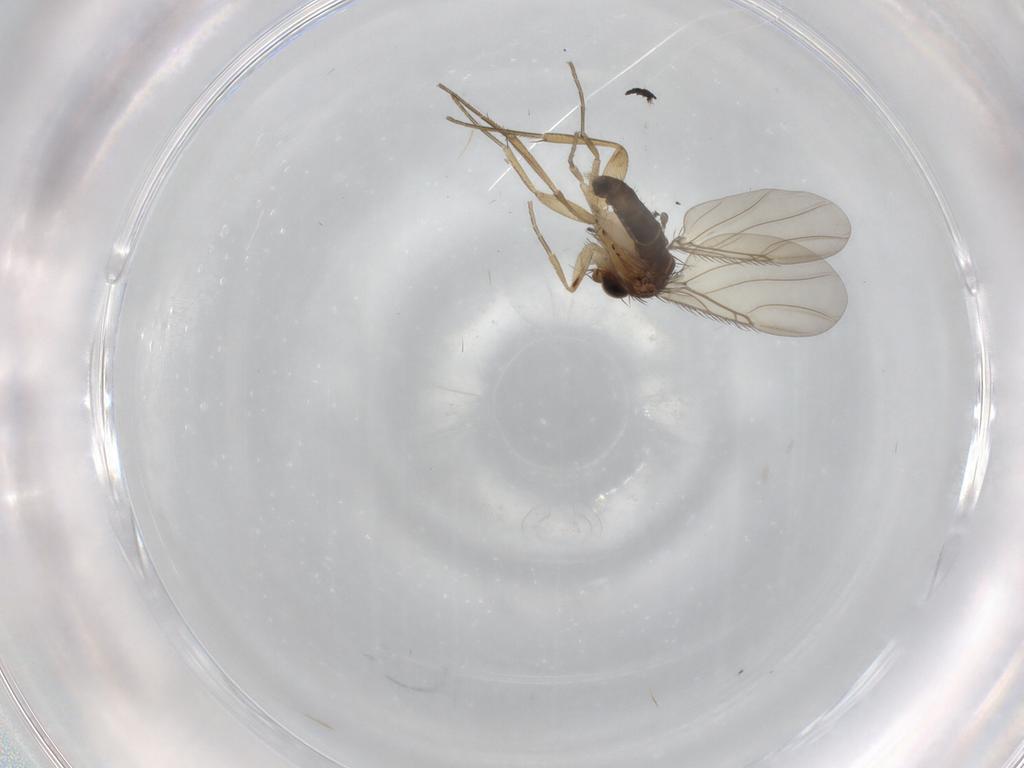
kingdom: Animalia
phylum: Arthropoda
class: Insecta
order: Diptera
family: Phoridae
